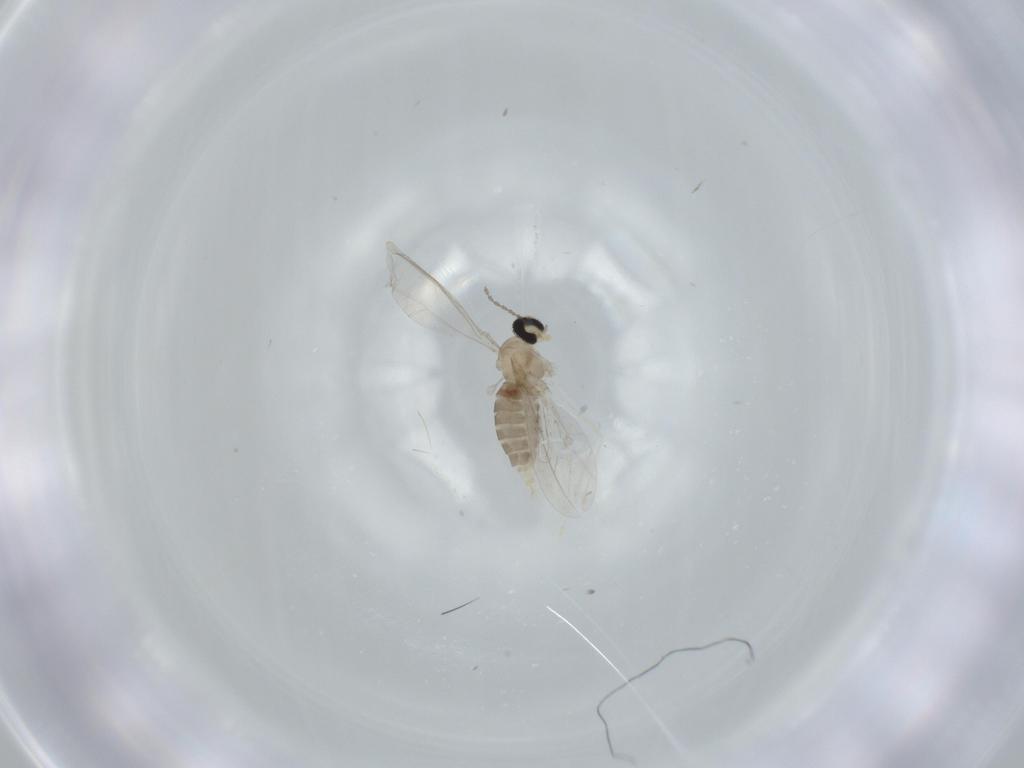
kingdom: Animalia
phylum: Arthropoda
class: Insecta
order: Diptera
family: Cecidomyiidae
